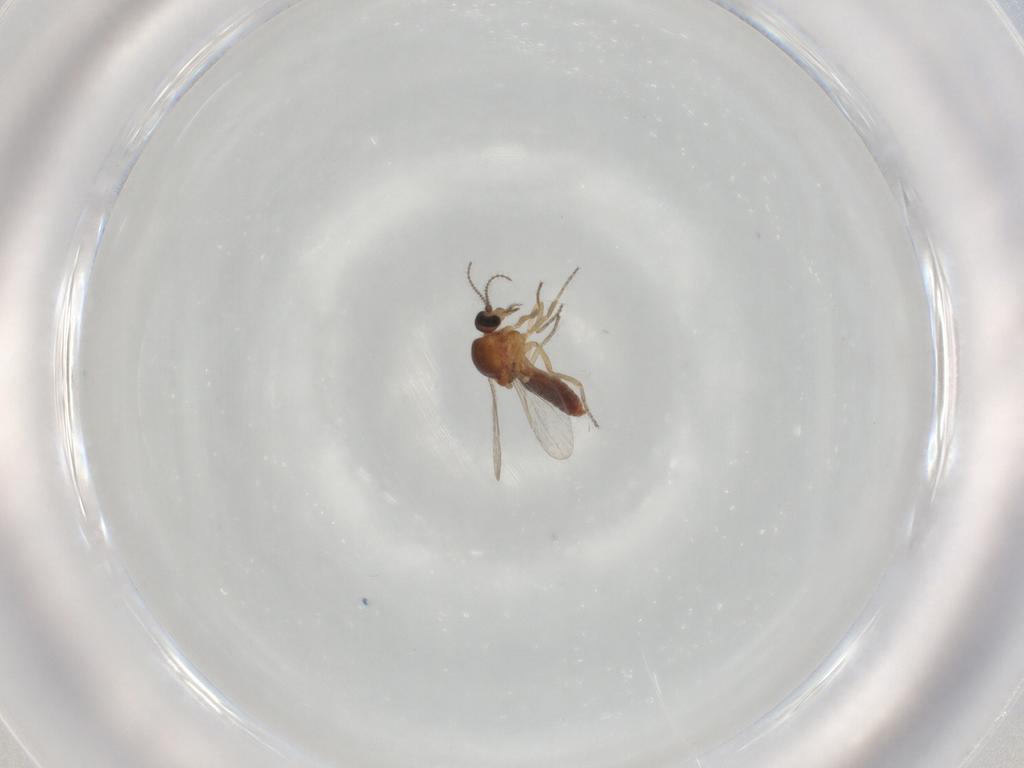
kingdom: Animalia
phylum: Arthropoda
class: Insecta
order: Diptera
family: Ceratopogonidae
